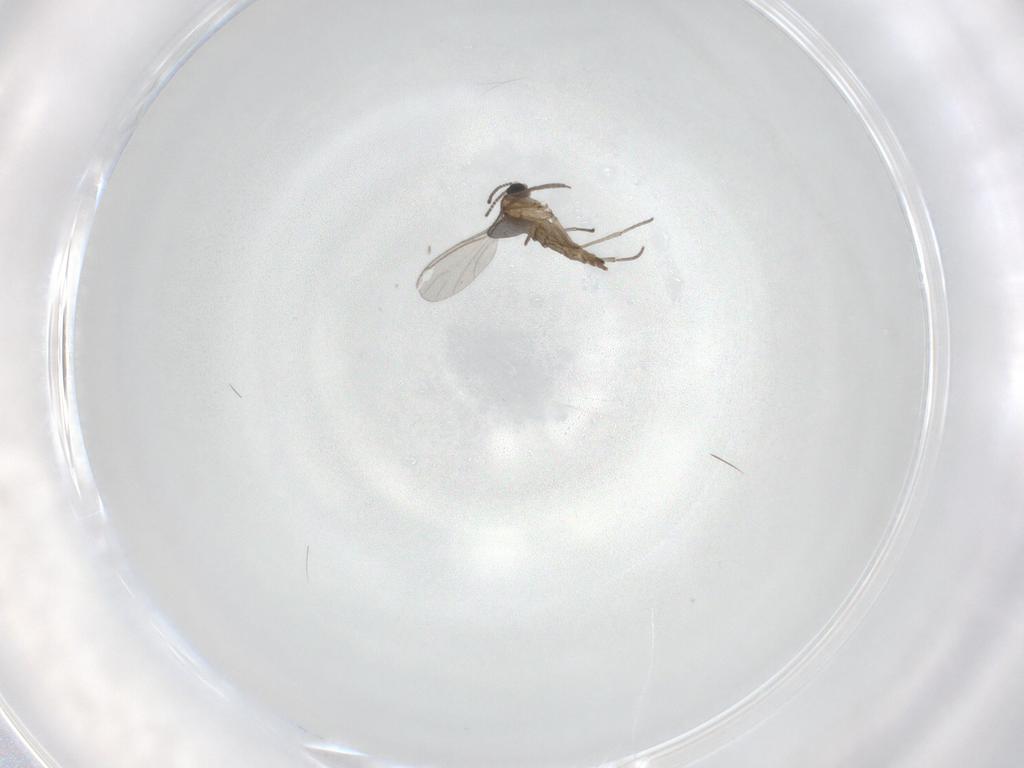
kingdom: Animalia
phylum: Arthropoda
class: Insecta
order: Diptera
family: Sciaridae
